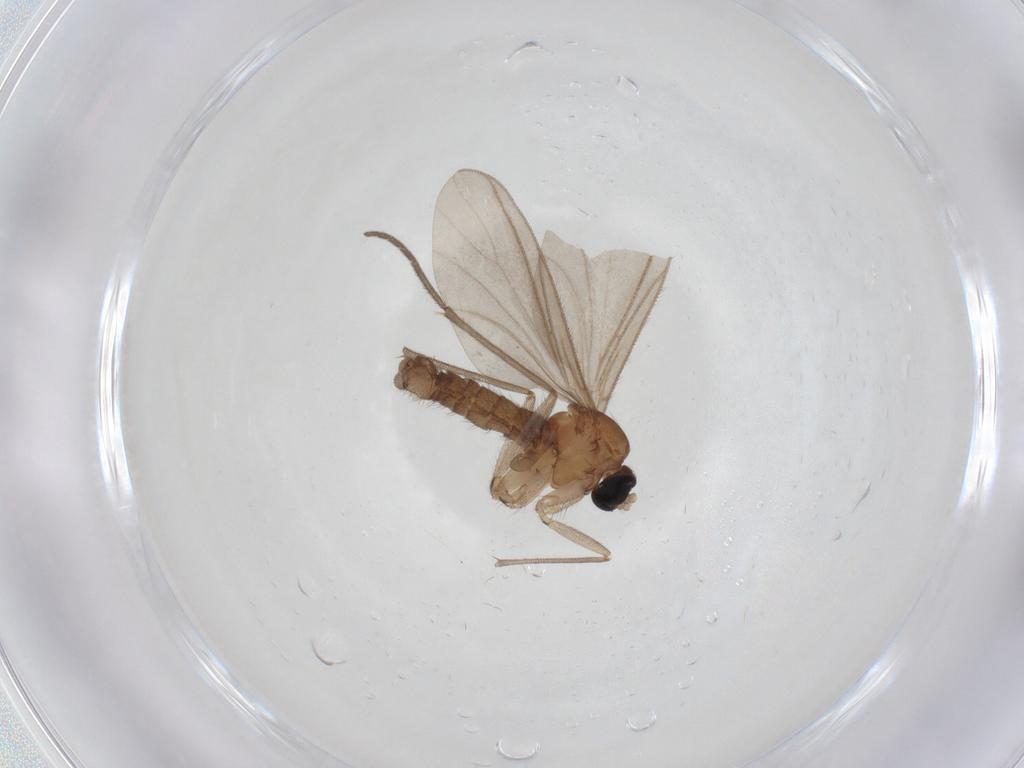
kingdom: Animalia
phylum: Arthropoda
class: Insecta
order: Diptera
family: Sciaridae
